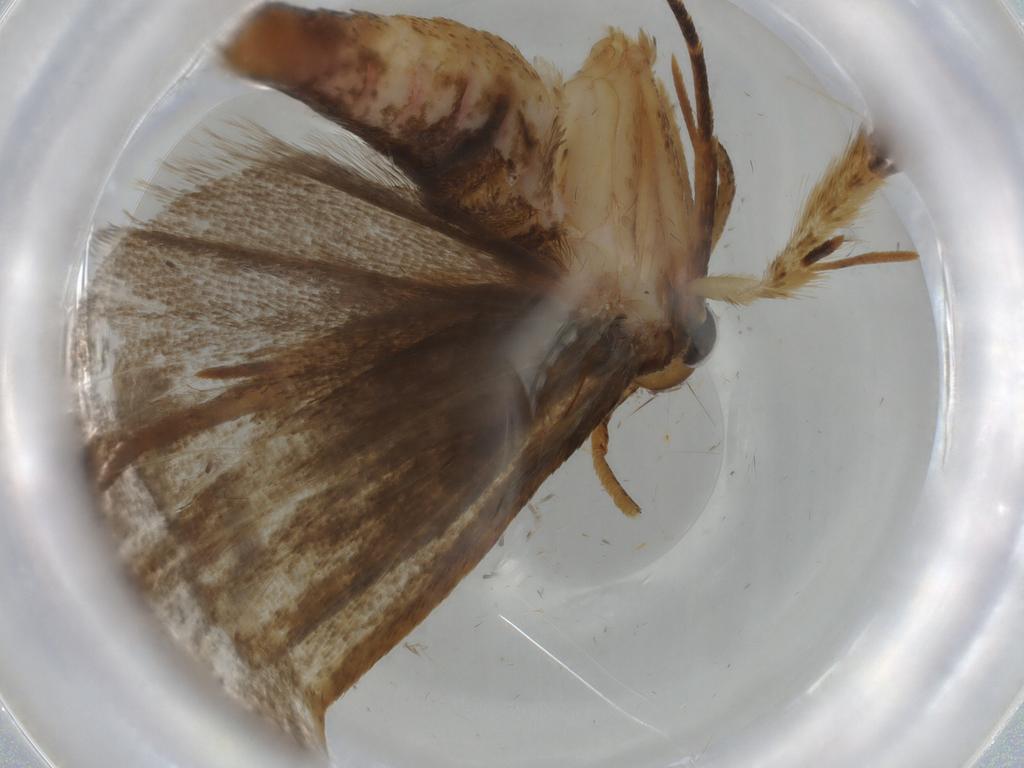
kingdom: Animalia
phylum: Arthropoda
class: Insecta
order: Lepidoptera
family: Autostichidae
